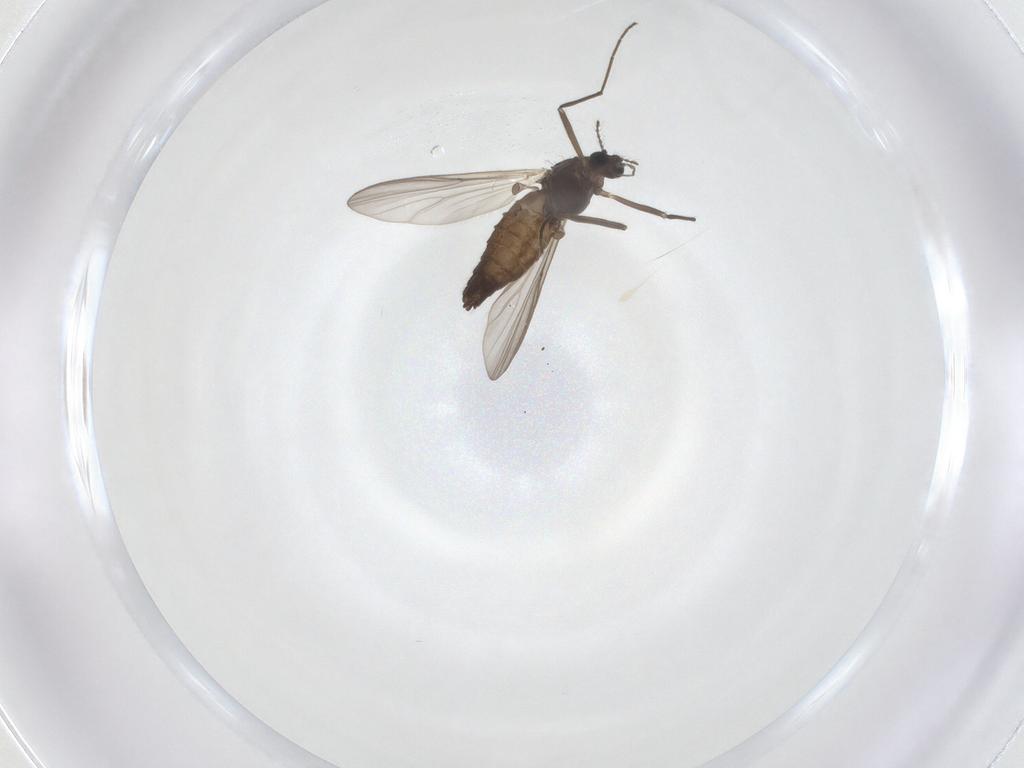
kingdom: Animalia
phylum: Arthropoda
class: Insecta
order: Diptera
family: Chironomidae
